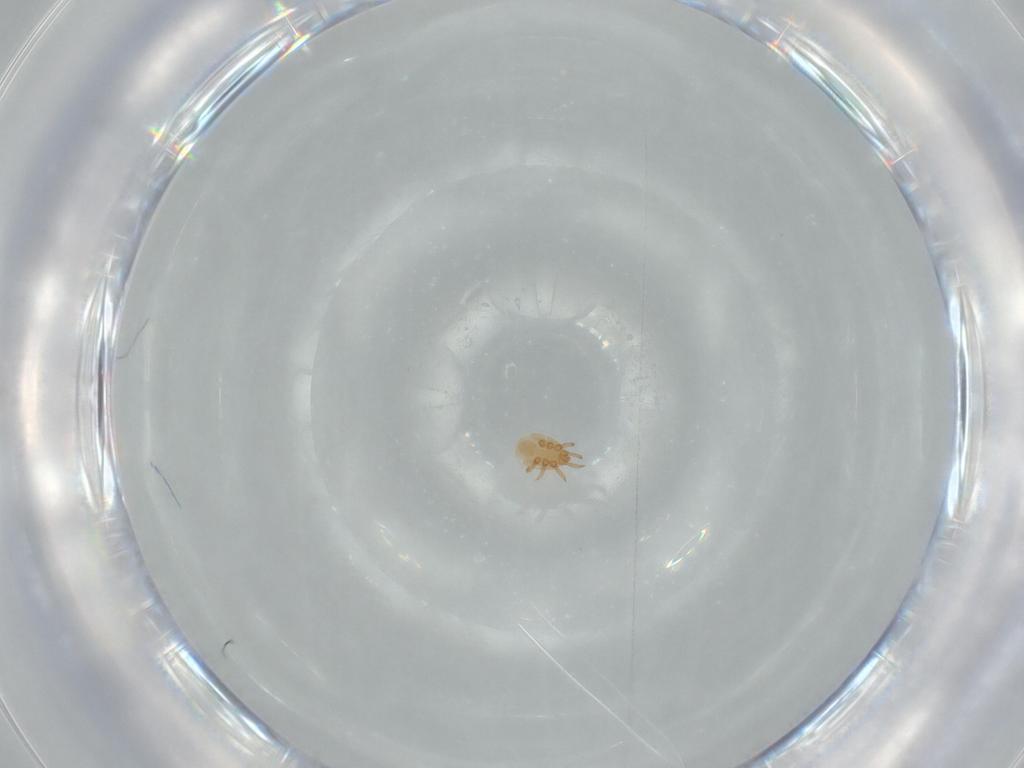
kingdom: Animalia
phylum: Arthropoda
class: Arachnida
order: Mesostigmata
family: Dinychidae
